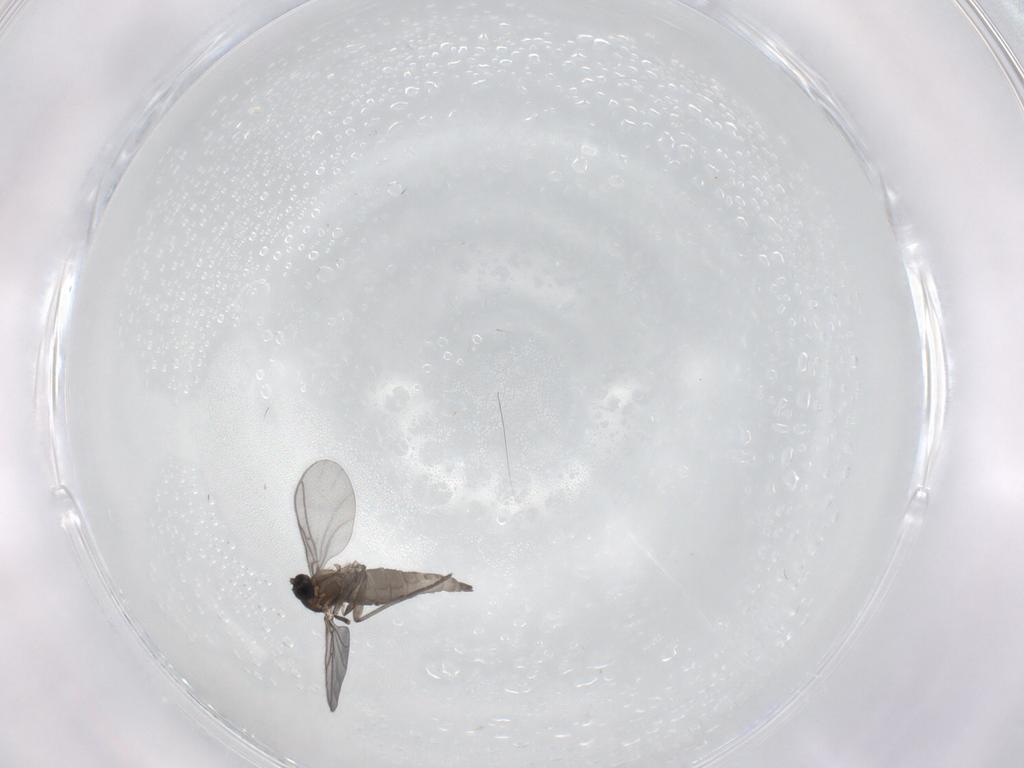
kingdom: Animalia
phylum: Arthropoda
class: Insecta
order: Diptera
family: Sciaridae
